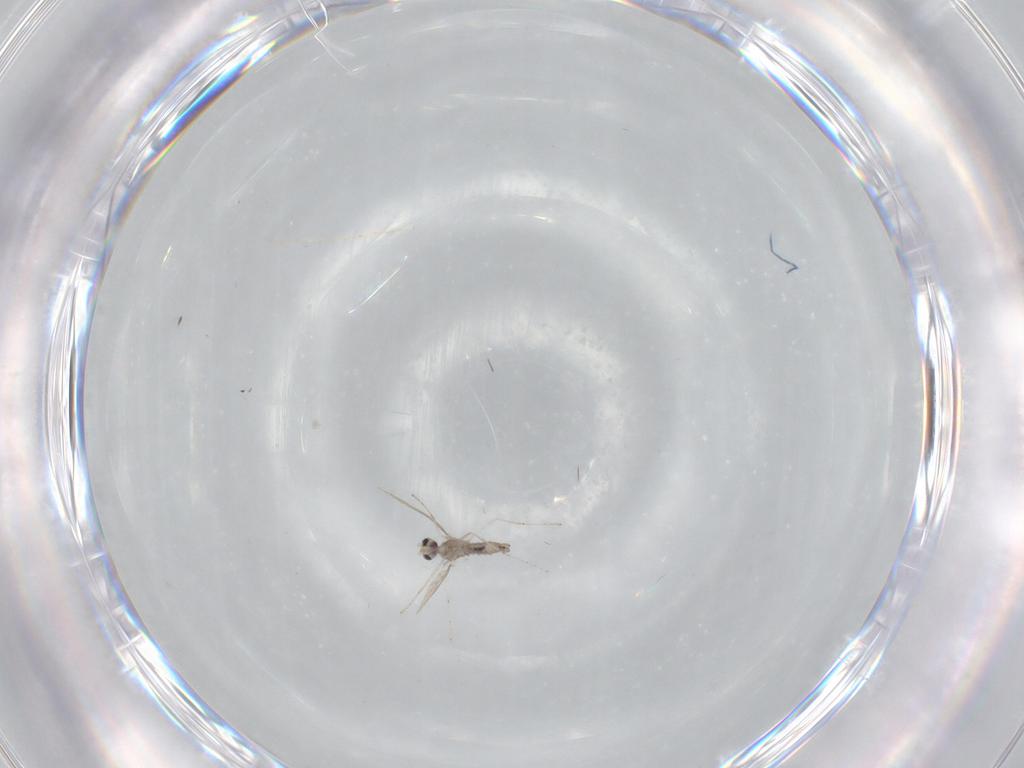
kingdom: Animalia
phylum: Arthropoda
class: Insecta
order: Diptera
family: Cecidomyiidae
